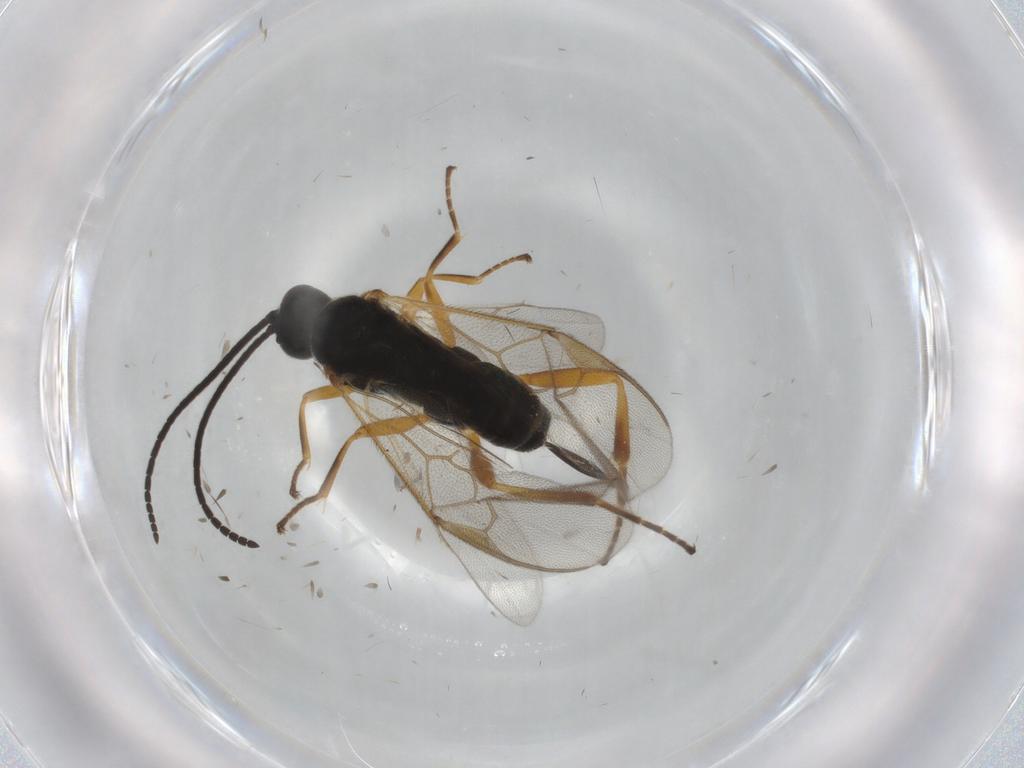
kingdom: Animalia
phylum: Arthropoda
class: Insecta
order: Hymenoptera
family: Braconidae
